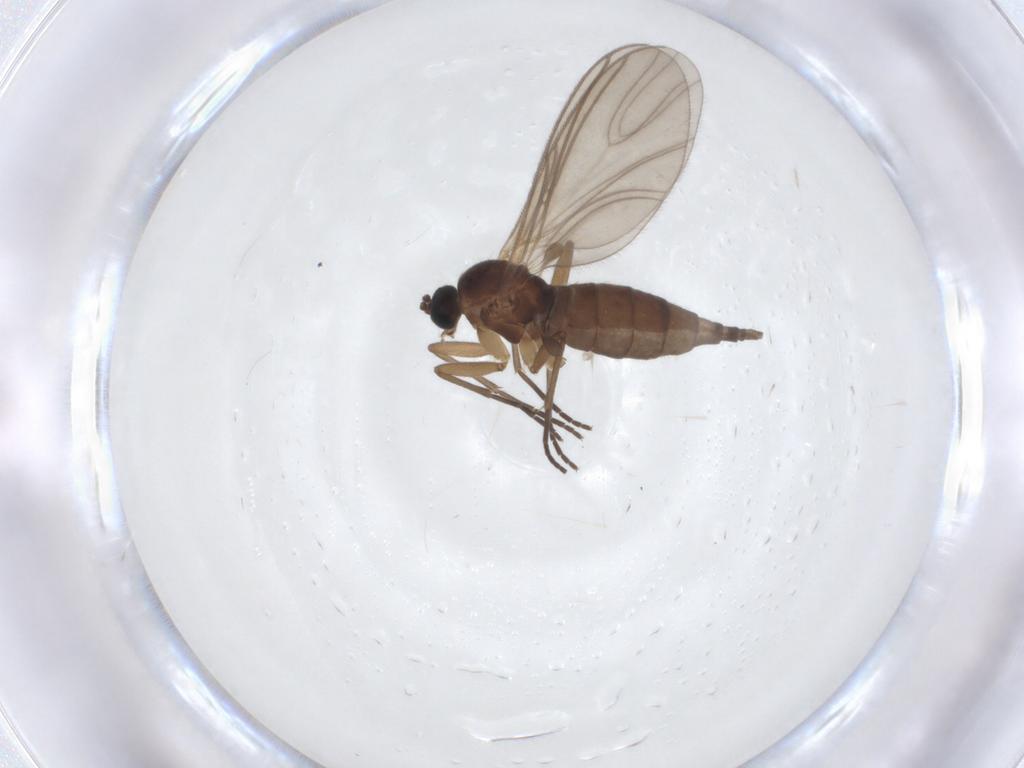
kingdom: Animalia
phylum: Arthropoda
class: Insecta
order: Diptera
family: Sciaridae
